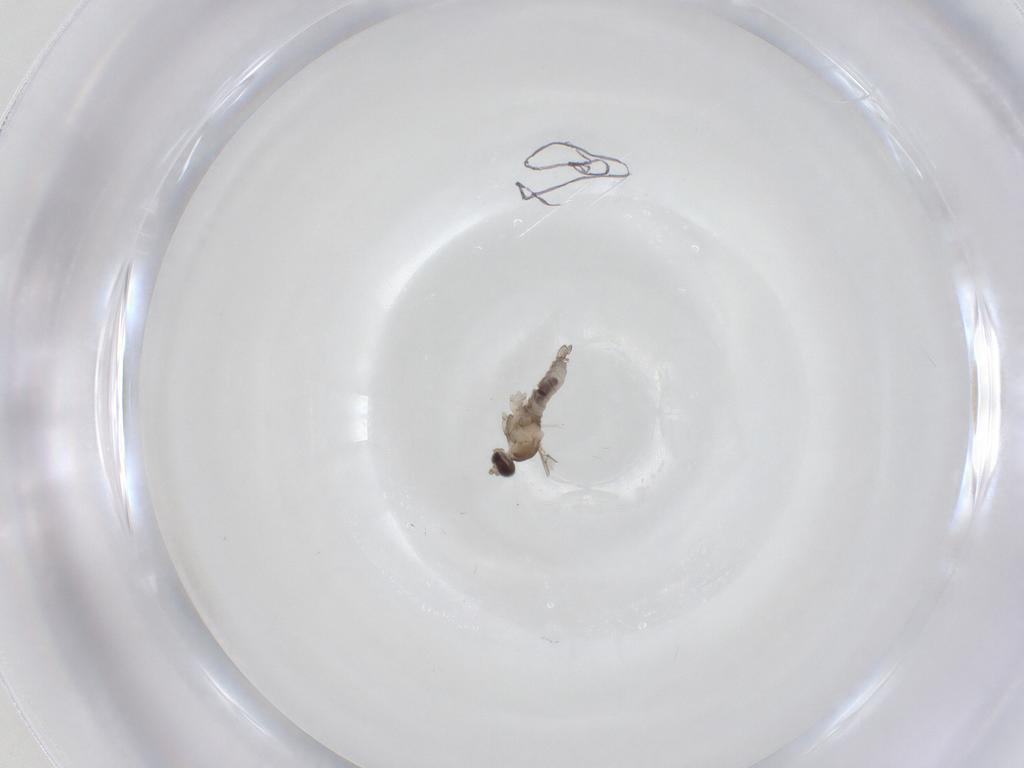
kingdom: Animalia
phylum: Arthropoda
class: Insecta
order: Diptera
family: Cecidomyiidae
